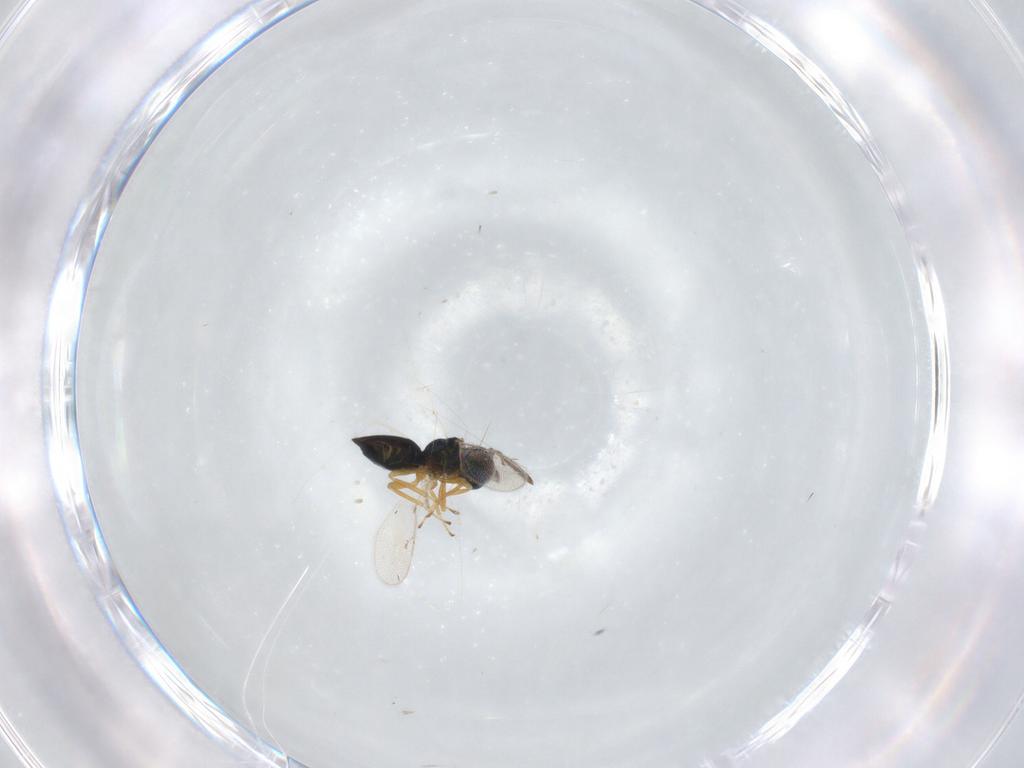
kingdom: Animalia
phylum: Arthropoda
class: Insecta
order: Hymenoptera
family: Pteromalidae
